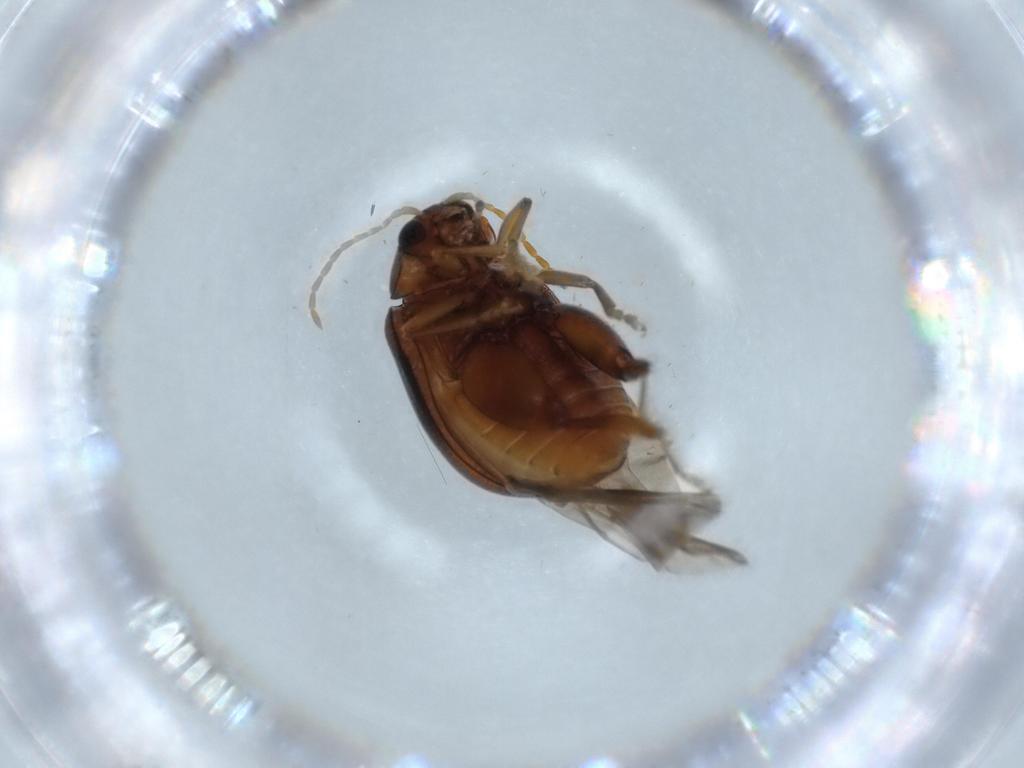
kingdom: Animalia
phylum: Arthropoda
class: Insecta
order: Coleoptera
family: Scraptiidae
